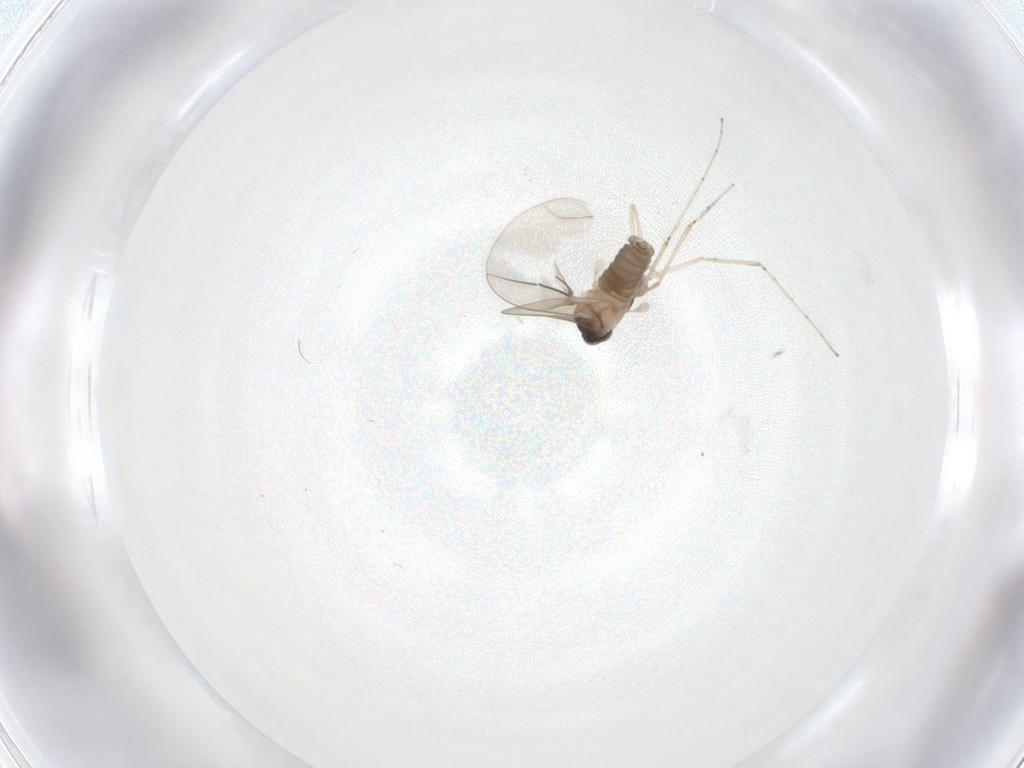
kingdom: Animalia
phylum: Arthropoda
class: Insecta
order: Diptera
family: Cecidomyiidae
